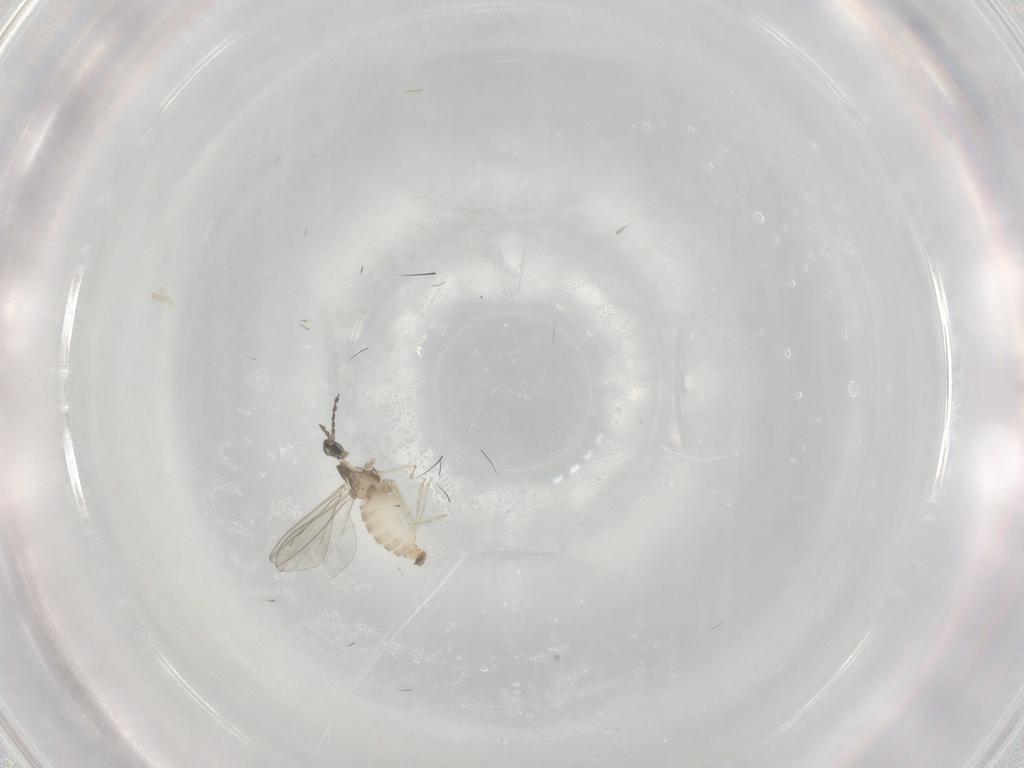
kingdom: Animalia
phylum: Arthropoda
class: Insecta
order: Diptera
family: Cecidomyiidae
